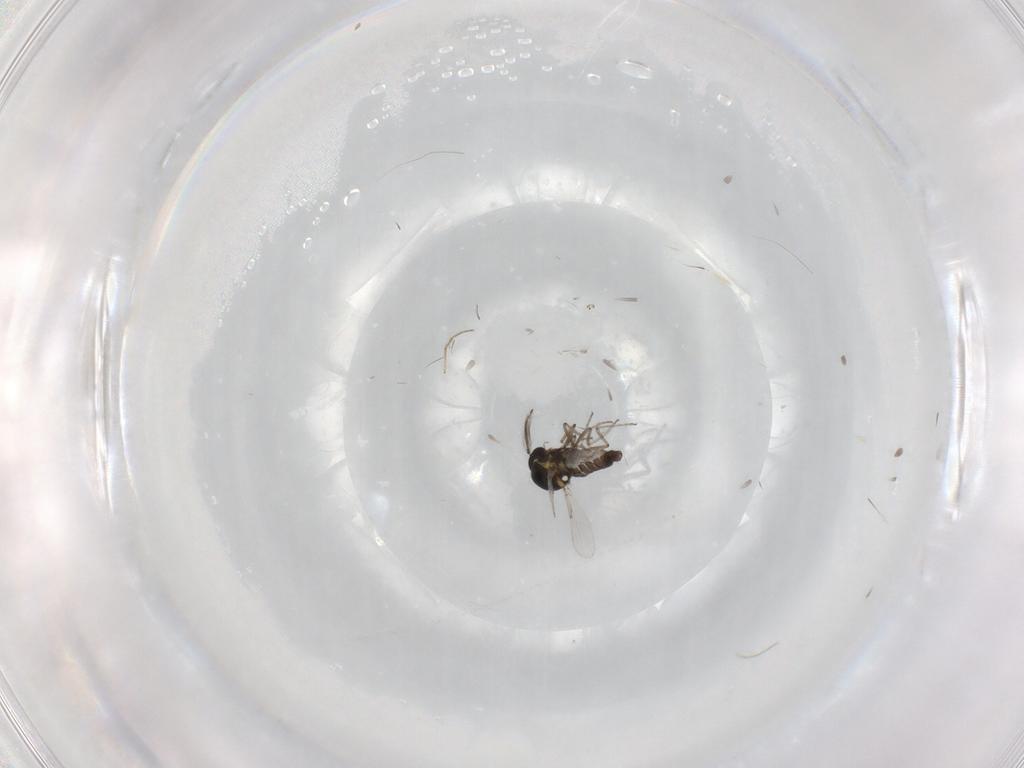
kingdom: Animalia
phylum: Arthropoda
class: Insecta
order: Diptera
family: Ceratopogonidae
